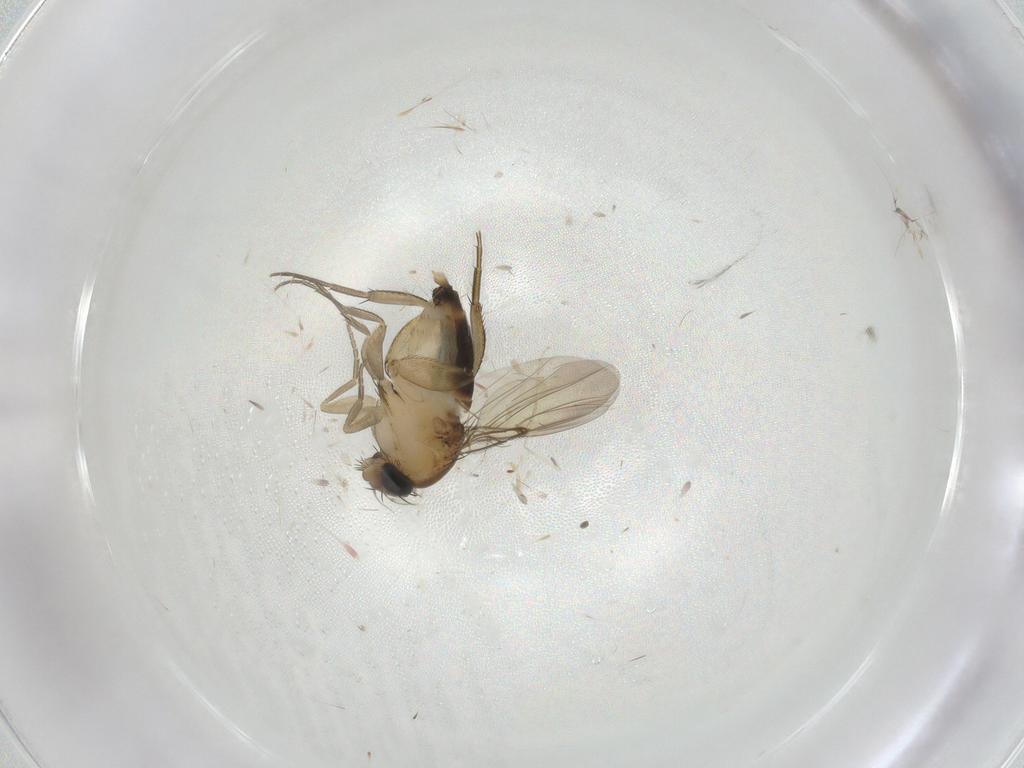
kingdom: Animalia
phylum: Arthropoda
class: Insecta
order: Diptera
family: Phoridae
